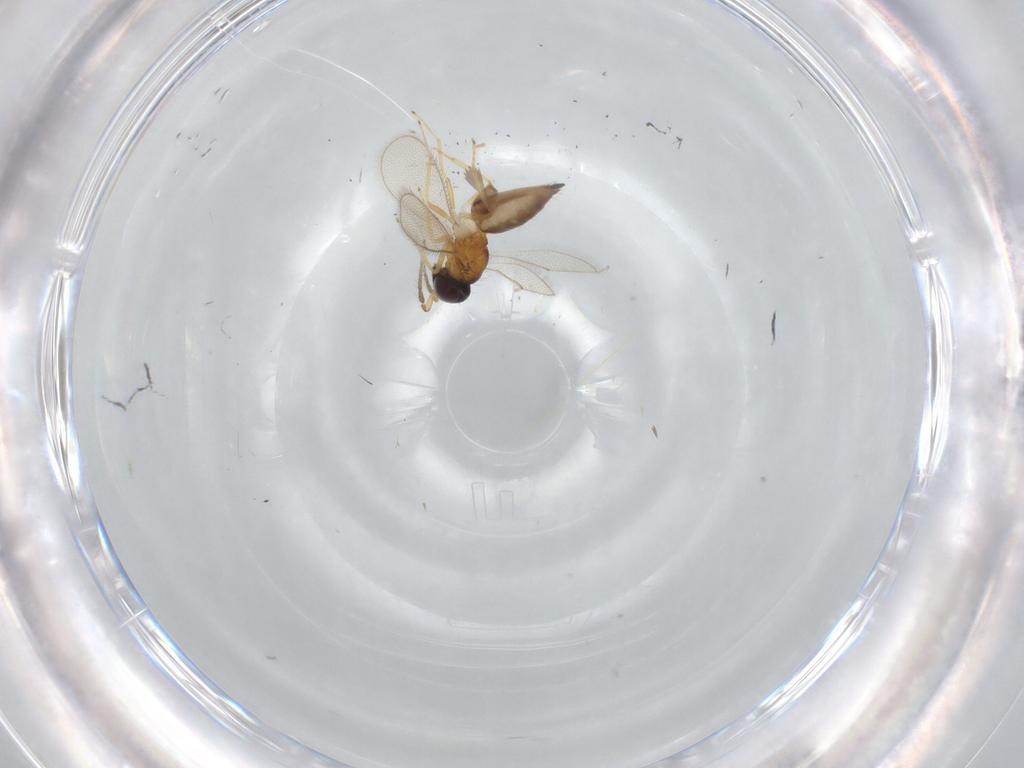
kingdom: Animalia
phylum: Arthropoda
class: Insecta
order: Hymenoptera
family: Eulophidae
